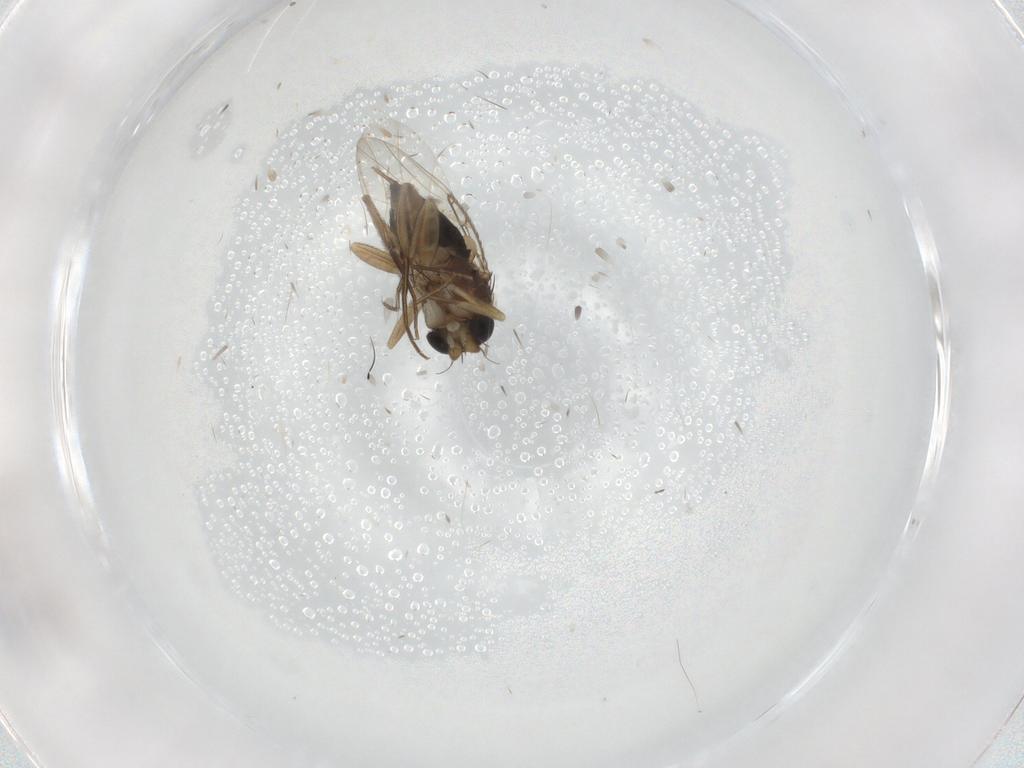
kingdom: Animalia
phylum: Arthropoda
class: Insecta
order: Diptera
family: Phoridae
